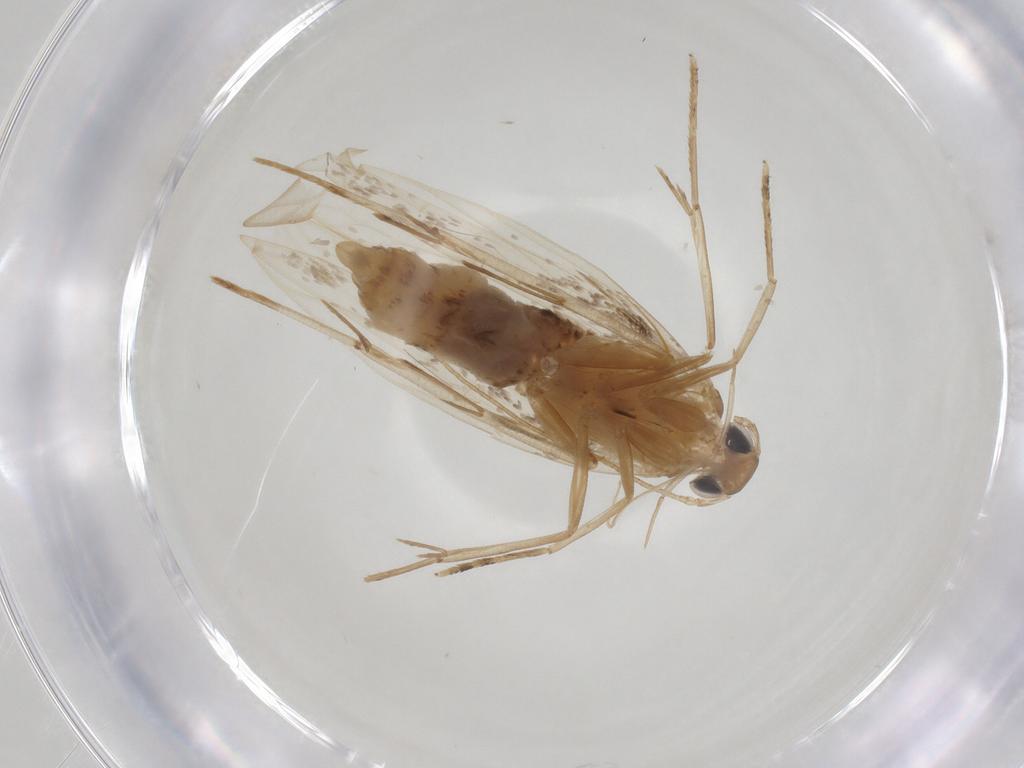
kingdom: Animalia
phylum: Arthropoda
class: Insecta
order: Lepidoptera
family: Erebidae
